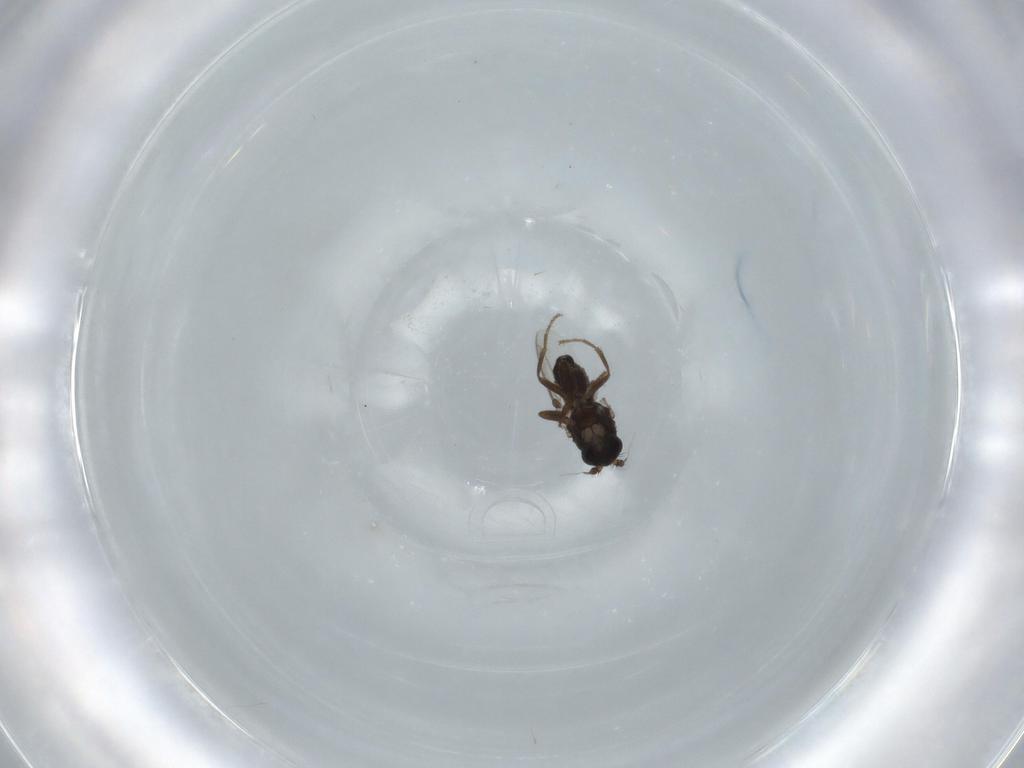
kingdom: Animalia
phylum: Arthropoda
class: Insecta
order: Diptera
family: Sphaeroceridae
